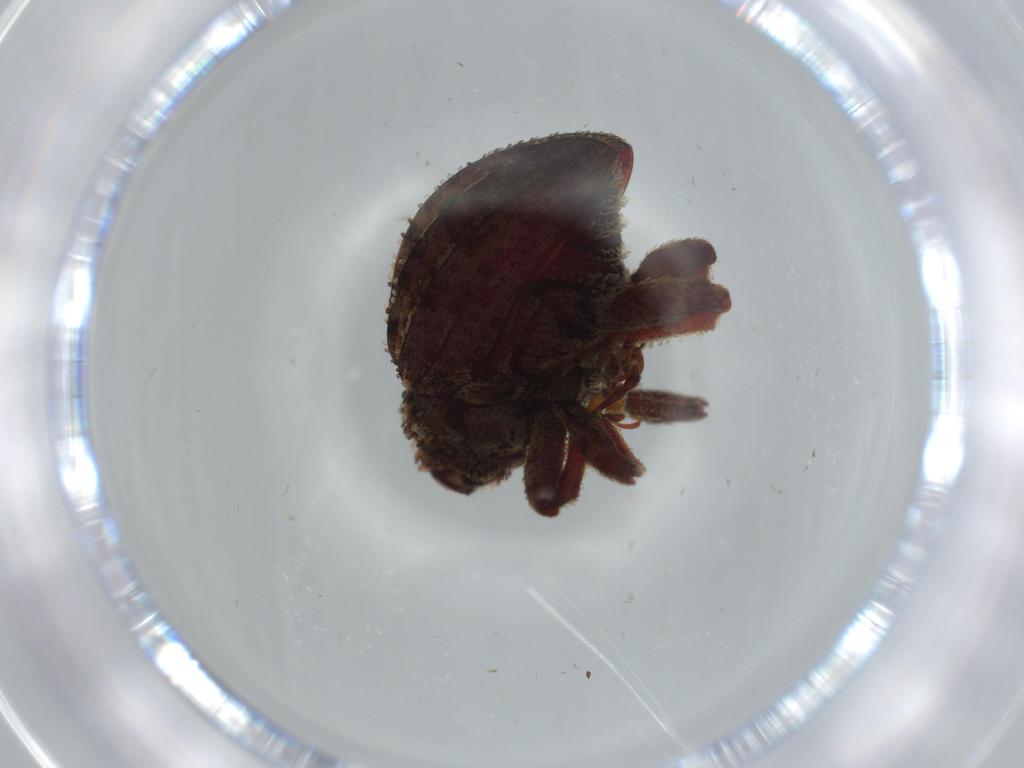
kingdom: Animalia
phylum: Arthropoda
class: Insecta
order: Coleoptera
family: Curculionidae
